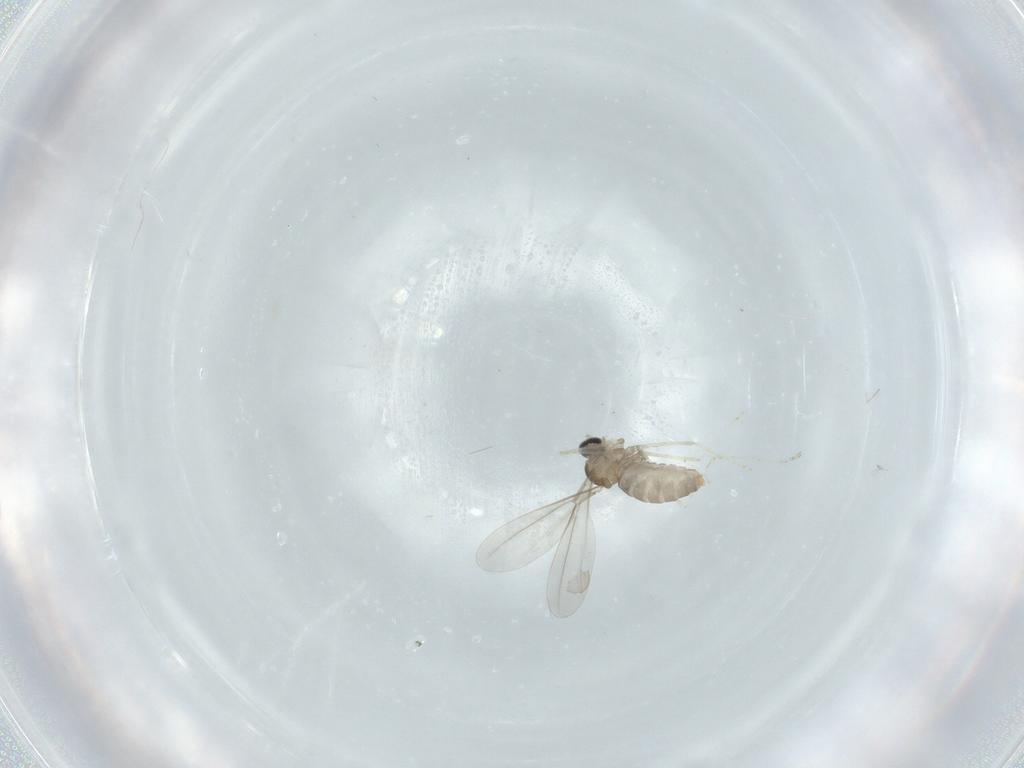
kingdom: Animalia
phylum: Arthropoda
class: Insecta
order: Diptera
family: Cecidomyiidae
